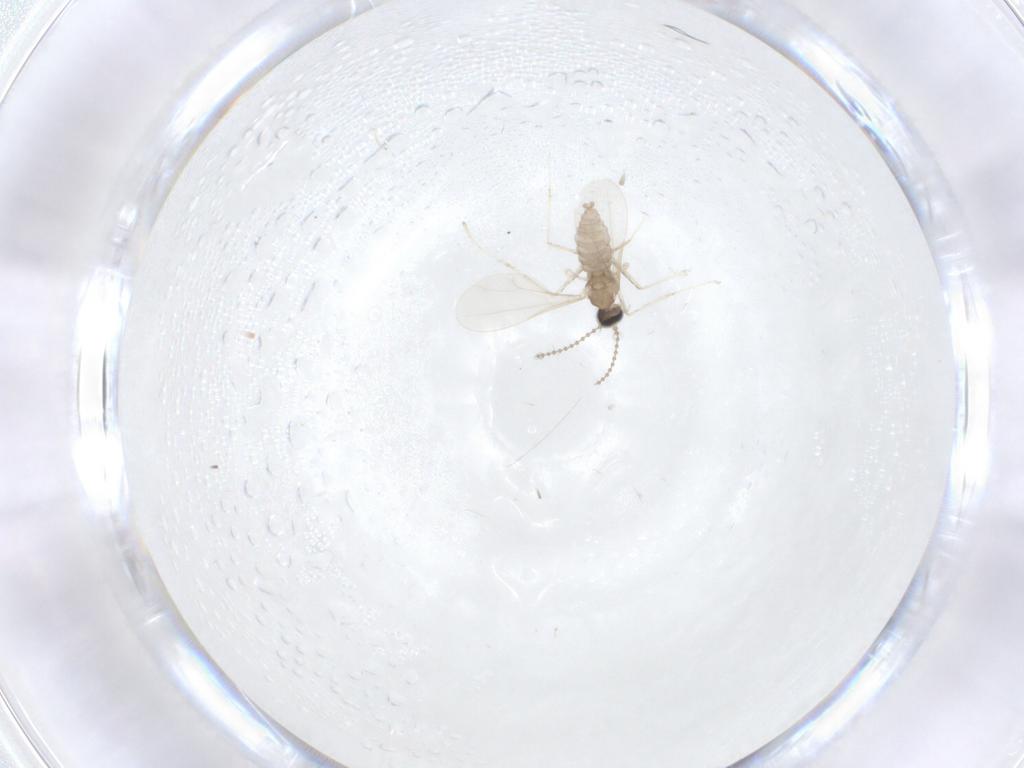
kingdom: Animalia
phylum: Arthropoda
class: Insecta
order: Diptera
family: Cecidomyiidae
